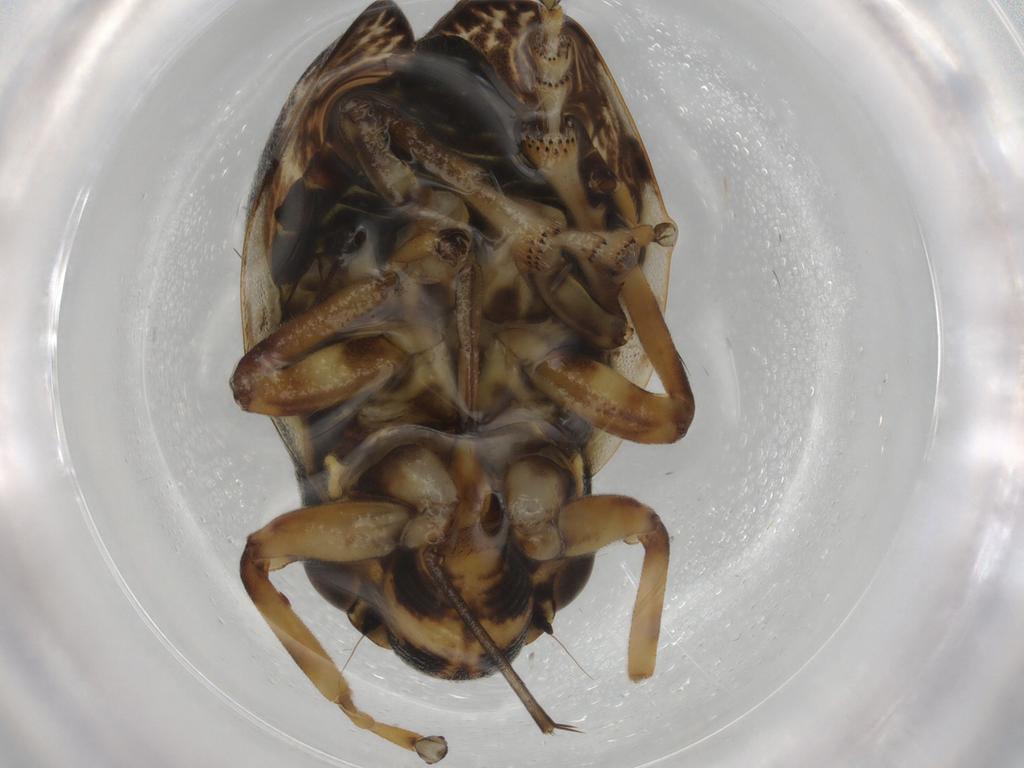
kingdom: Animalia
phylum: Arthropoda
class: Insecta
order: Hemiptera
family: Aphrophoridae
